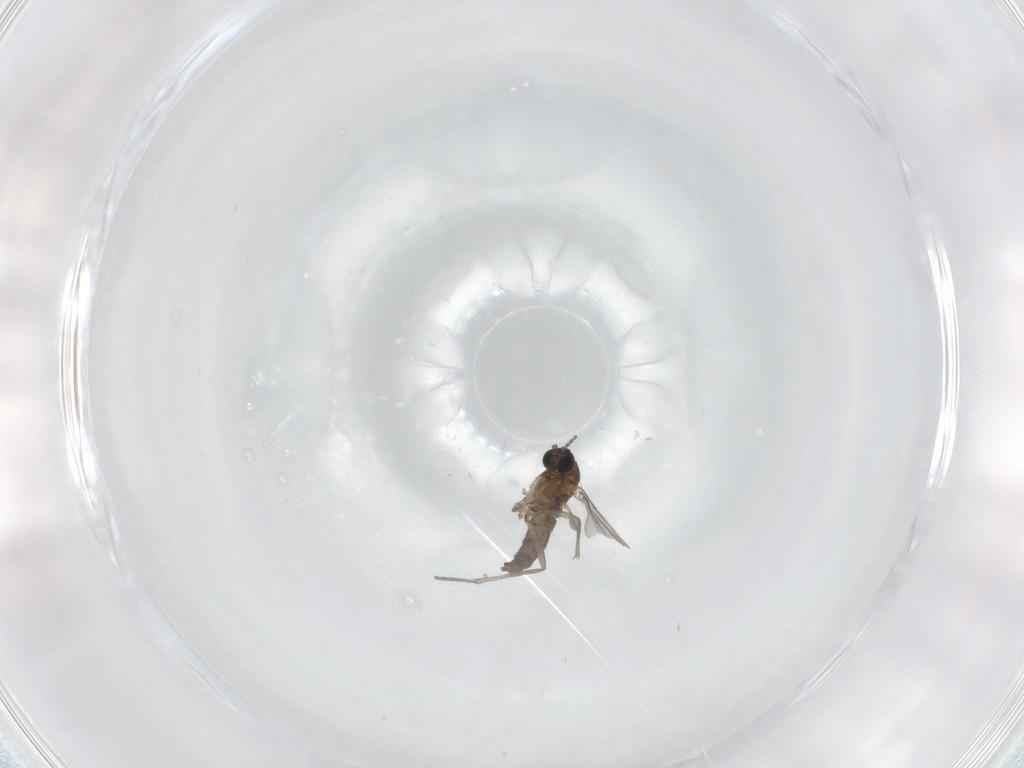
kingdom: Animalia
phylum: Arthropoda
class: Insecta
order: Diptera
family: Sciaridae
